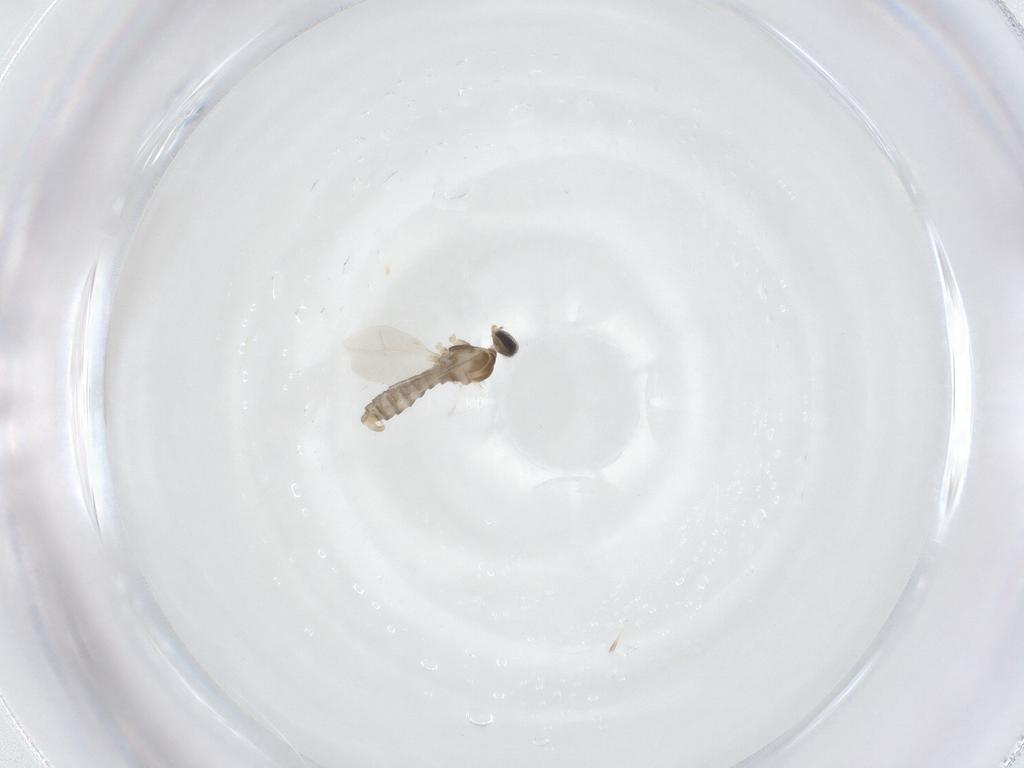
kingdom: Animalia
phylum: Arthropoda
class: Insecta
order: Diptera
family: Cecidomyiidae
